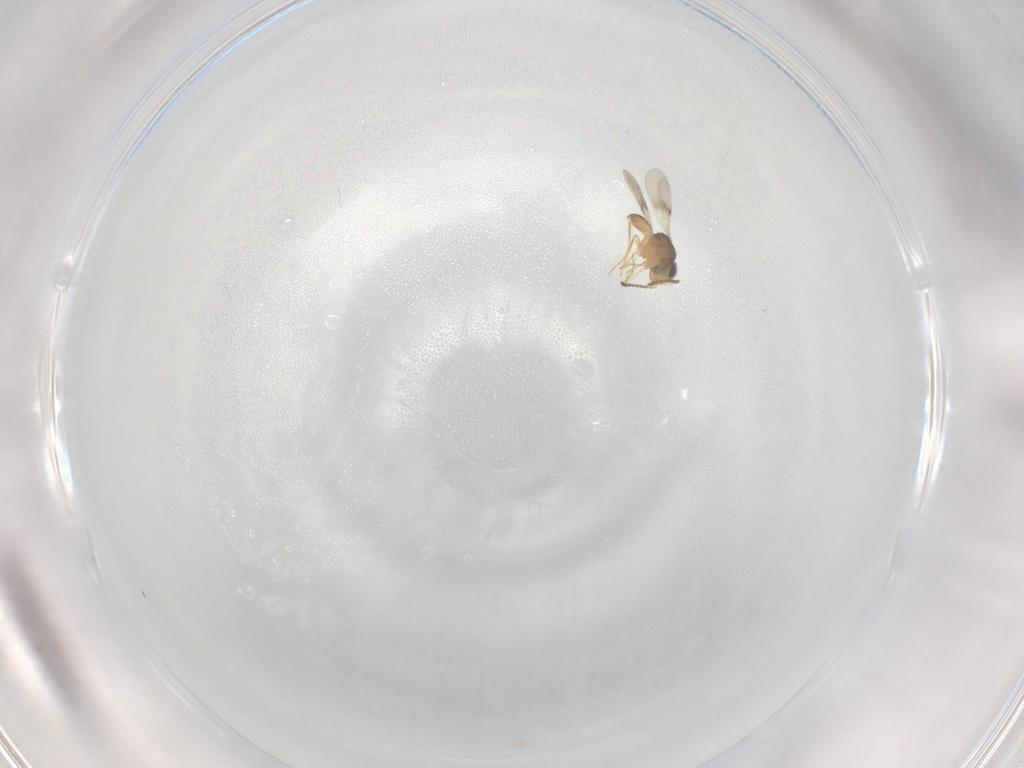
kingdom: Animalia
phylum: Arthropoda
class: Insecta
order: Hymenoptera
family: Scelionidae
